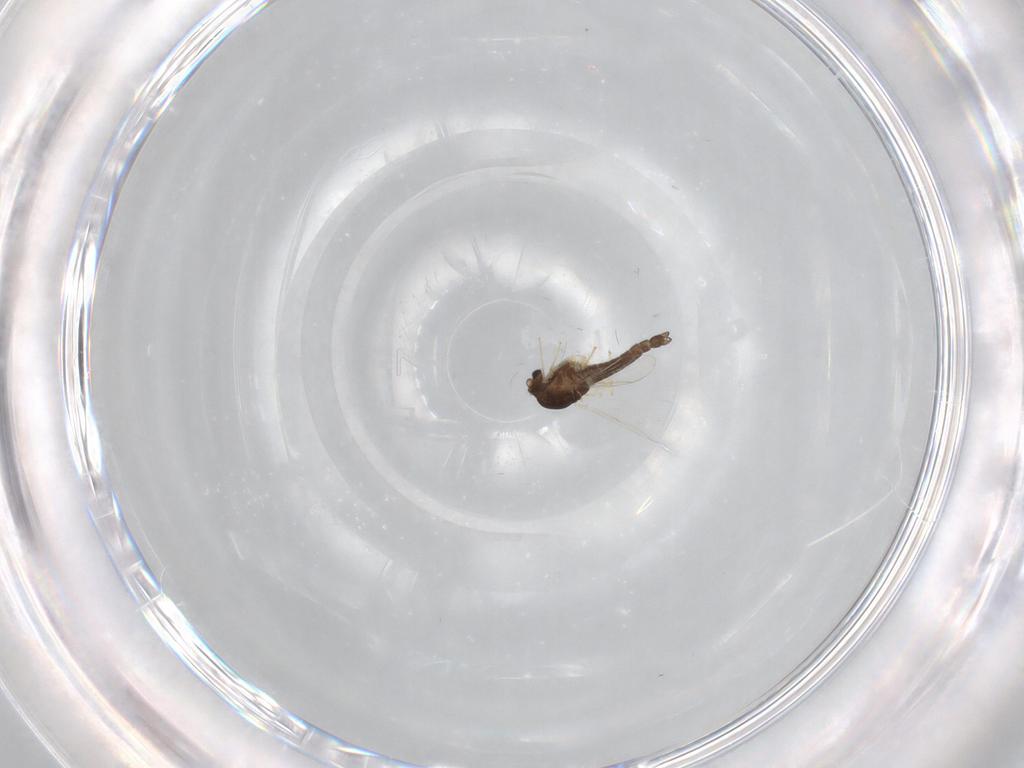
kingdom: Animalia
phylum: Arthropoda
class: Insecta
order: Diptera
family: Chironomidae
